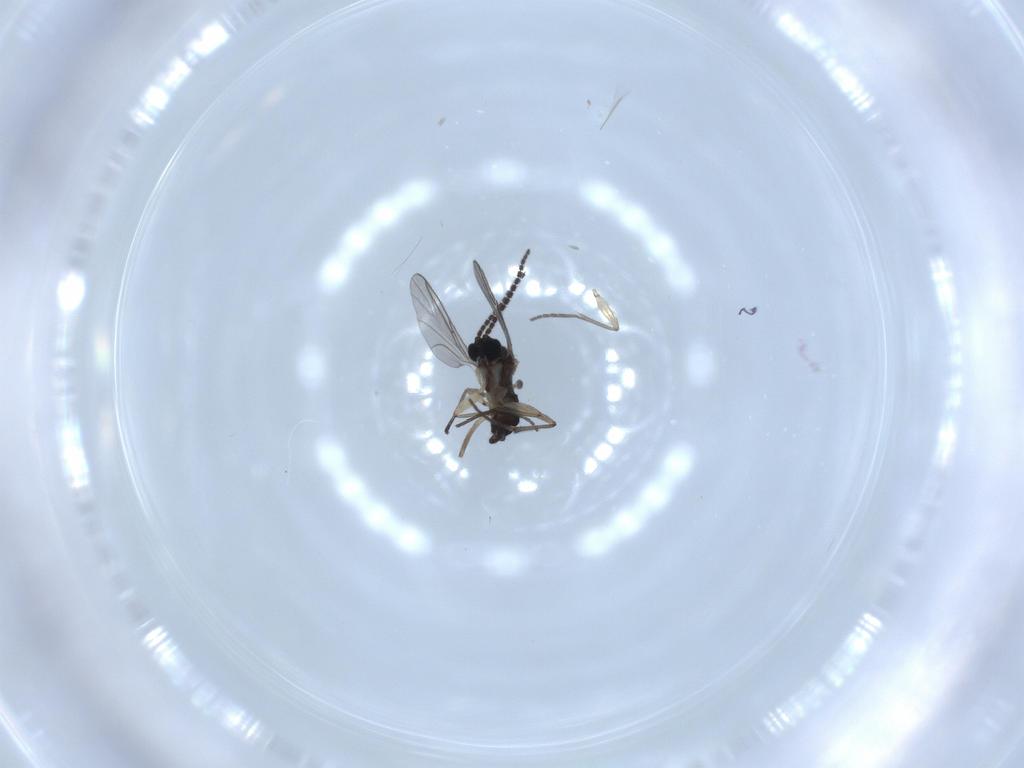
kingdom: Animalia
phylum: Arthropoda
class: Insecta
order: Diptera
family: Sciaridae
